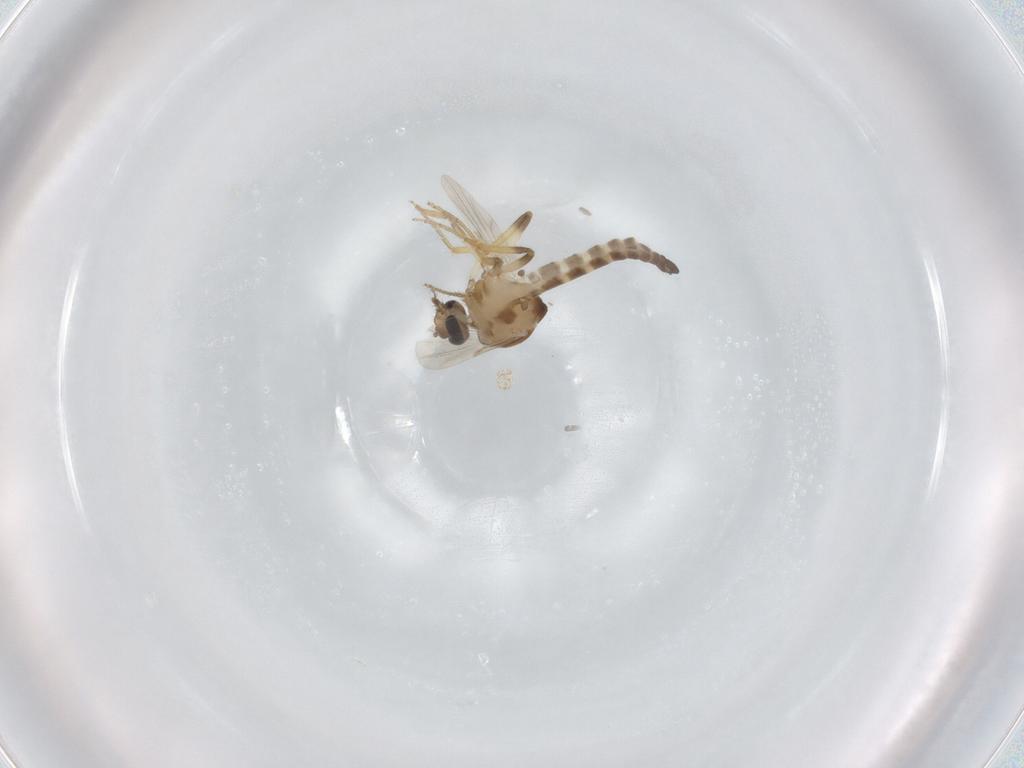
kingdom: Animalia
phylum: Arthropoda
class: Insecta
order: Diptera
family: Ceratopogonidae
